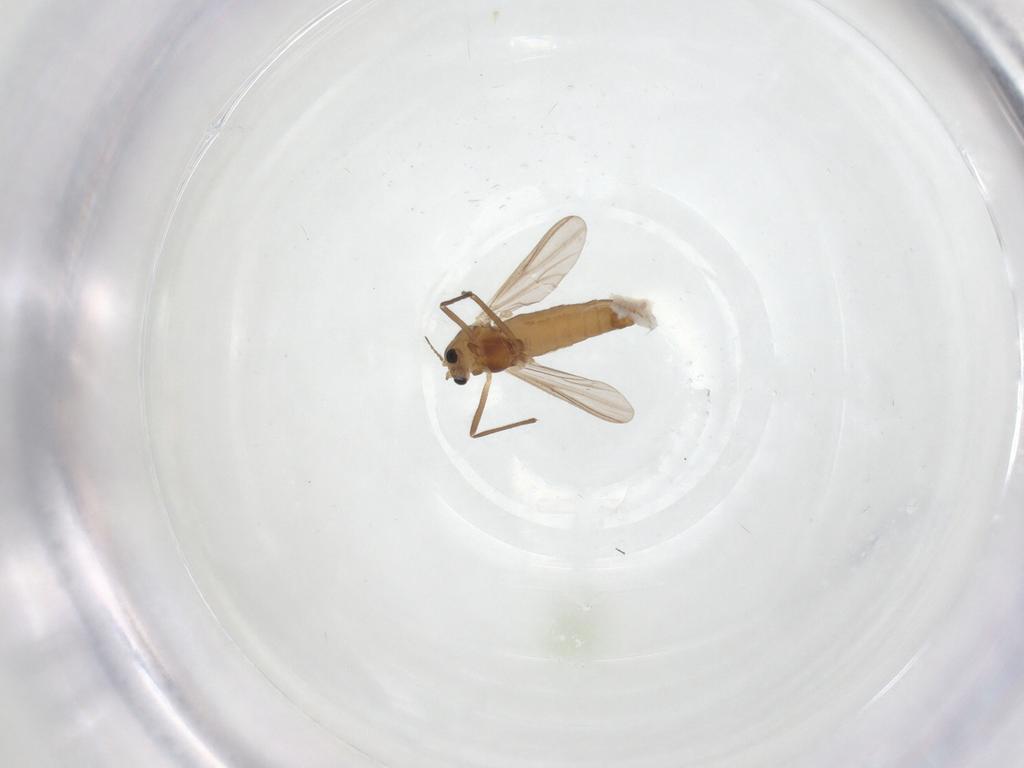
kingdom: Animalia
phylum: Arthropoda
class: Insecta
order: Diptera
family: Chironomidae
